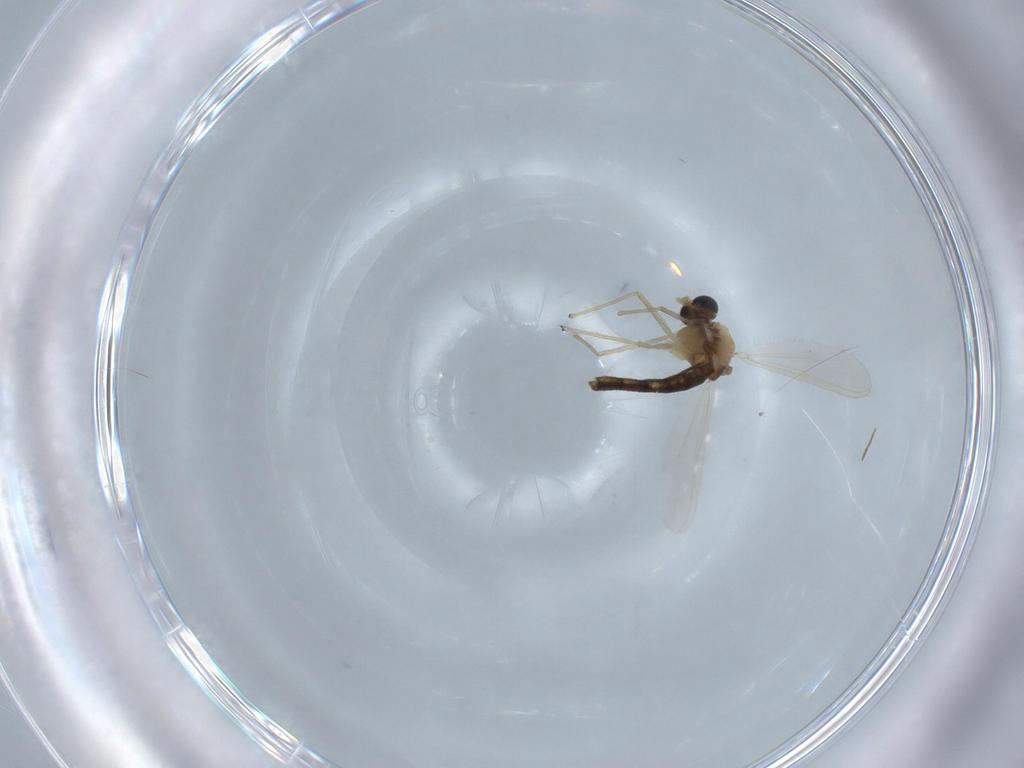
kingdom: Animalia
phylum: Arthropoda
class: Insecta
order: Diptera
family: Chironomidae
